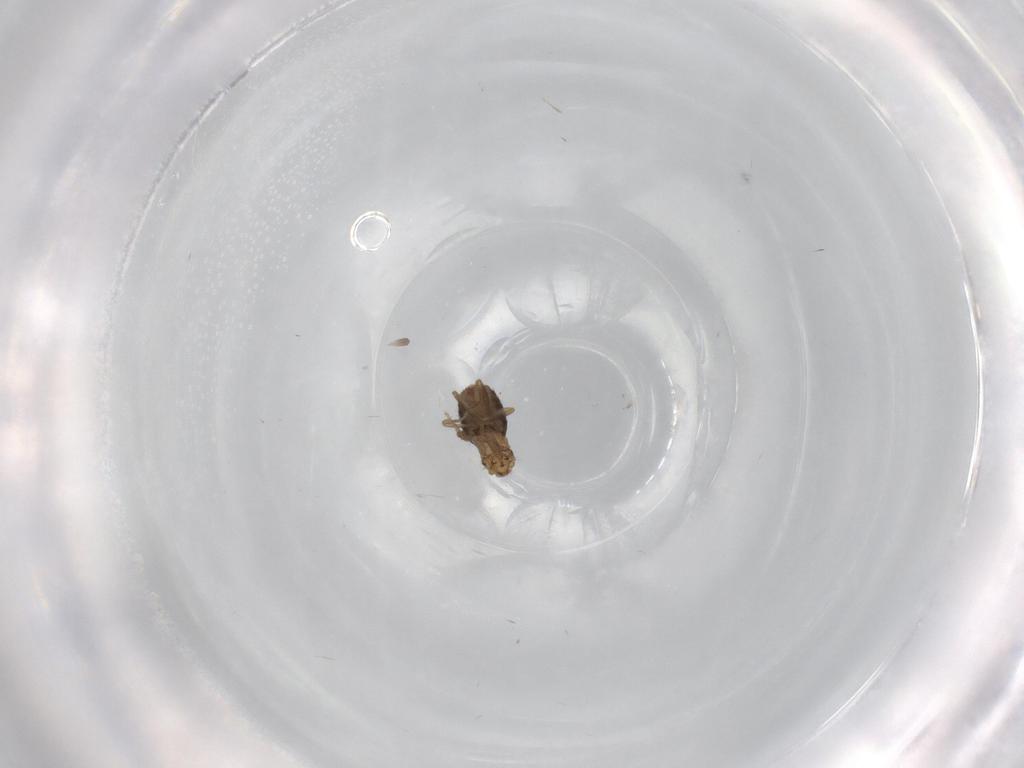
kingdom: Animalia
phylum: Arthropoda
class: Insecta
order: Diptera
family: Phoridae
